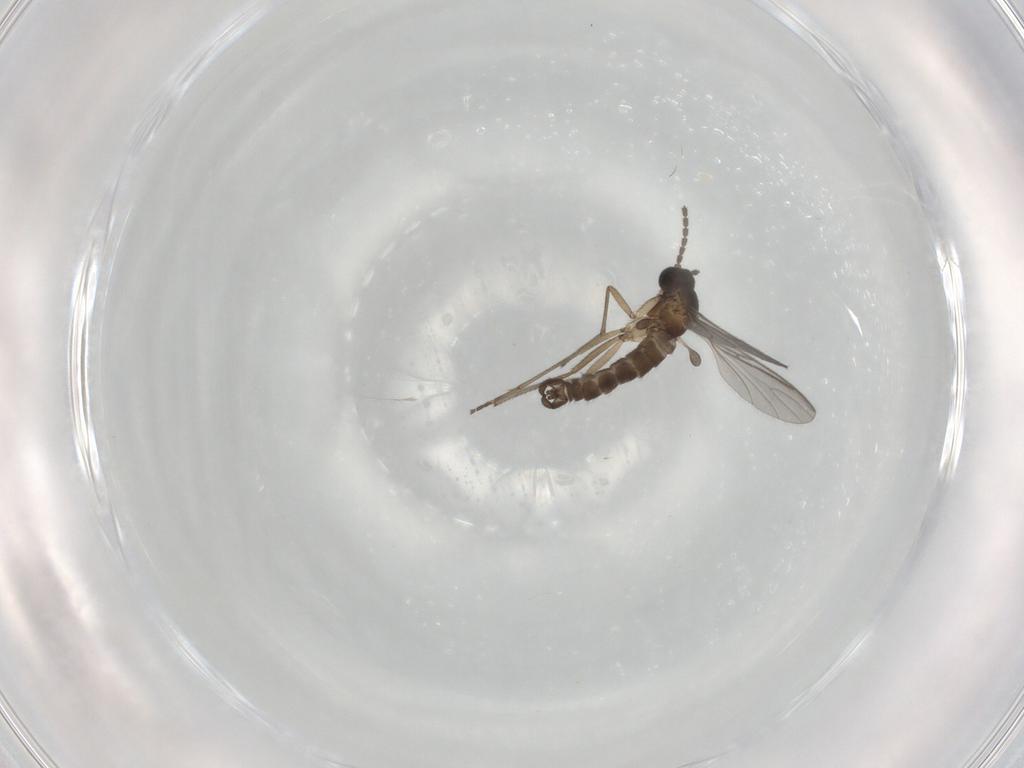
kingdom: Animalia
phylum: Arthropoda
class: Insecta
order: Diptera
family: Sciaridae
